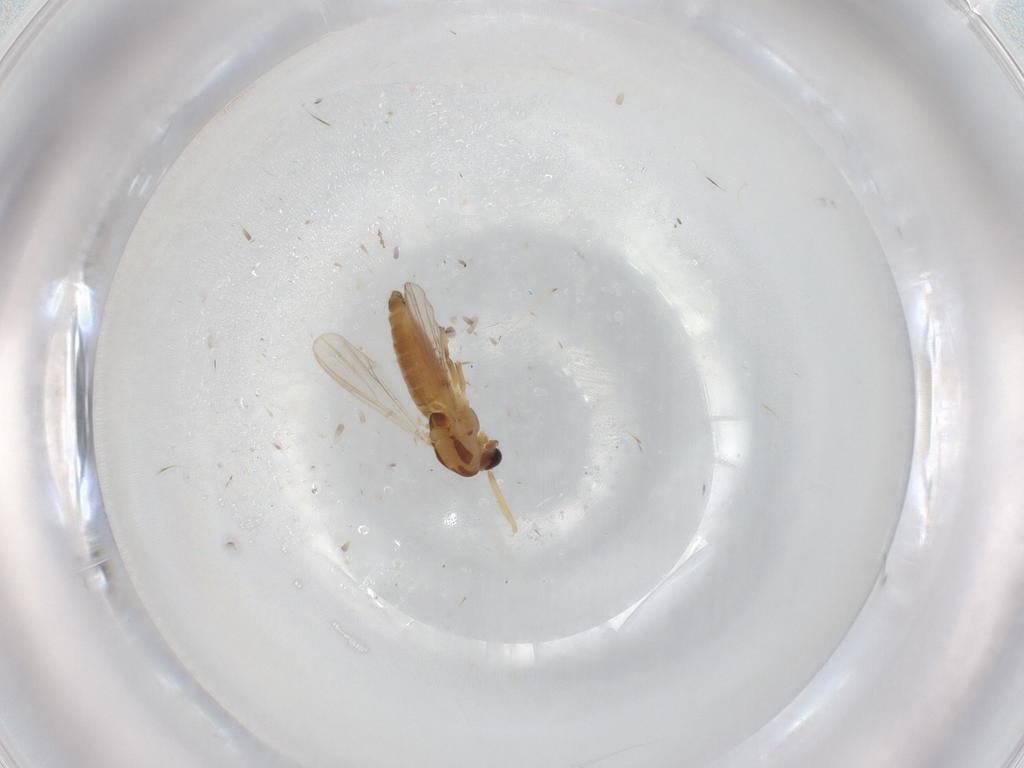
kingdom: Animalia
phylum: Arthropoda
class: Insecta
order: Diptera
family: Chironomidae
